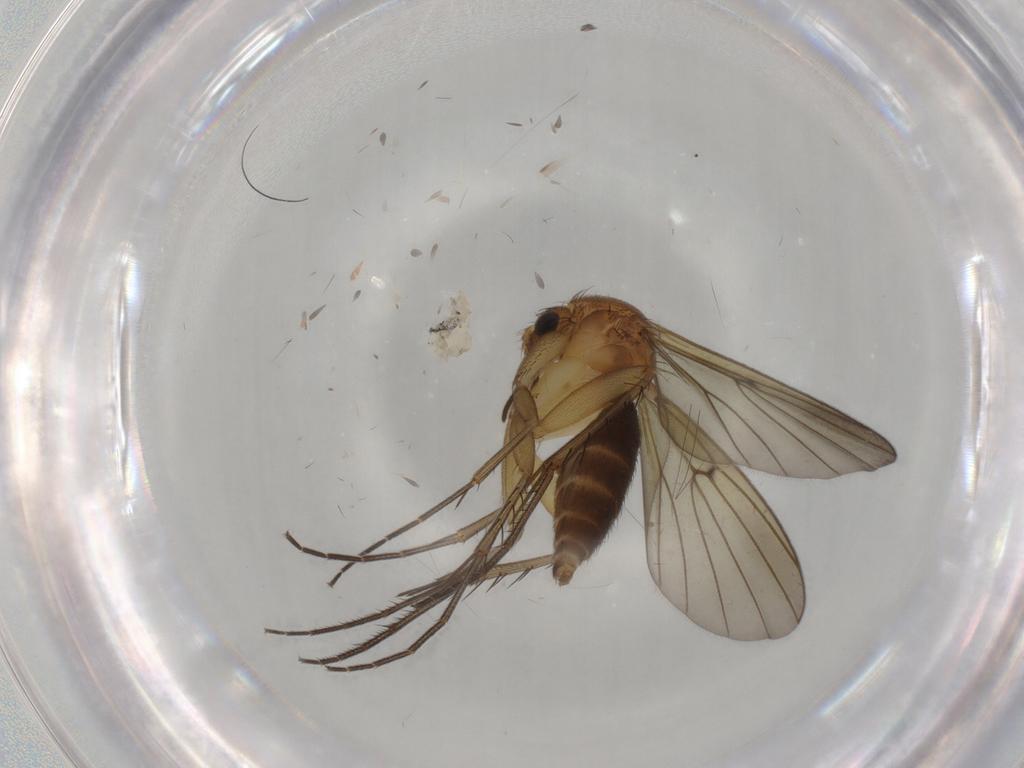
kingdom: Animalia
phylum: Arthropoda
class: Insecta
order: Diptera
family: Mycetophilidae
